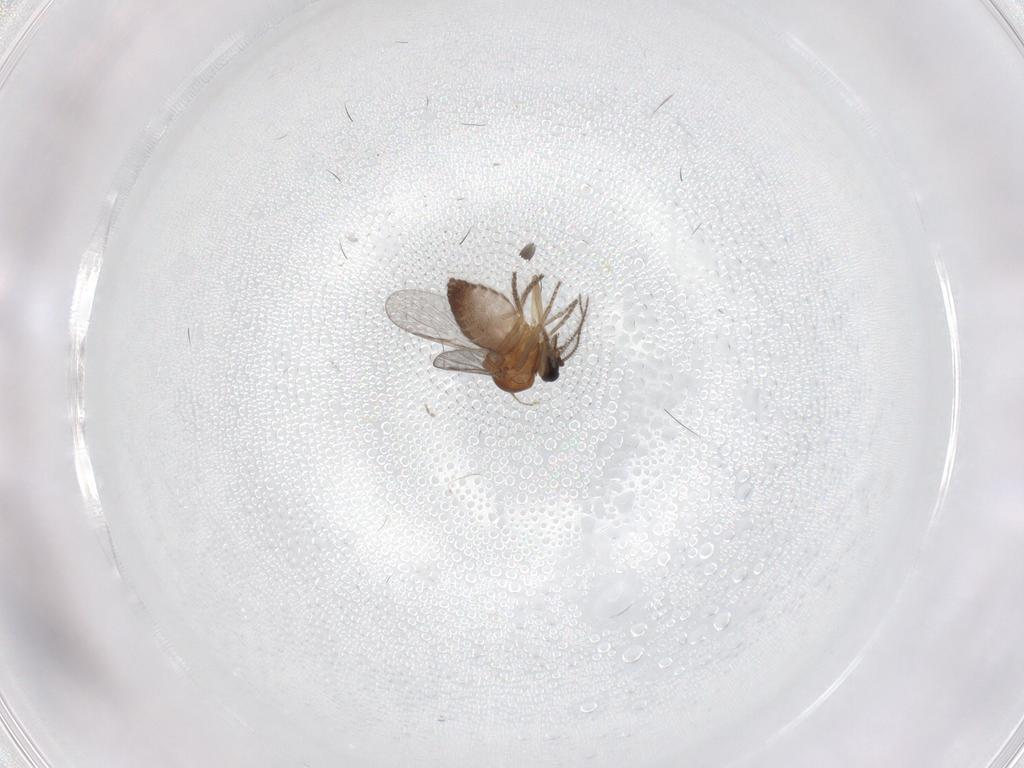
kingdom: Animalia
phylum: Arthropoda
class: Insecta
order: Diptera
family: Ceratopogonidae
